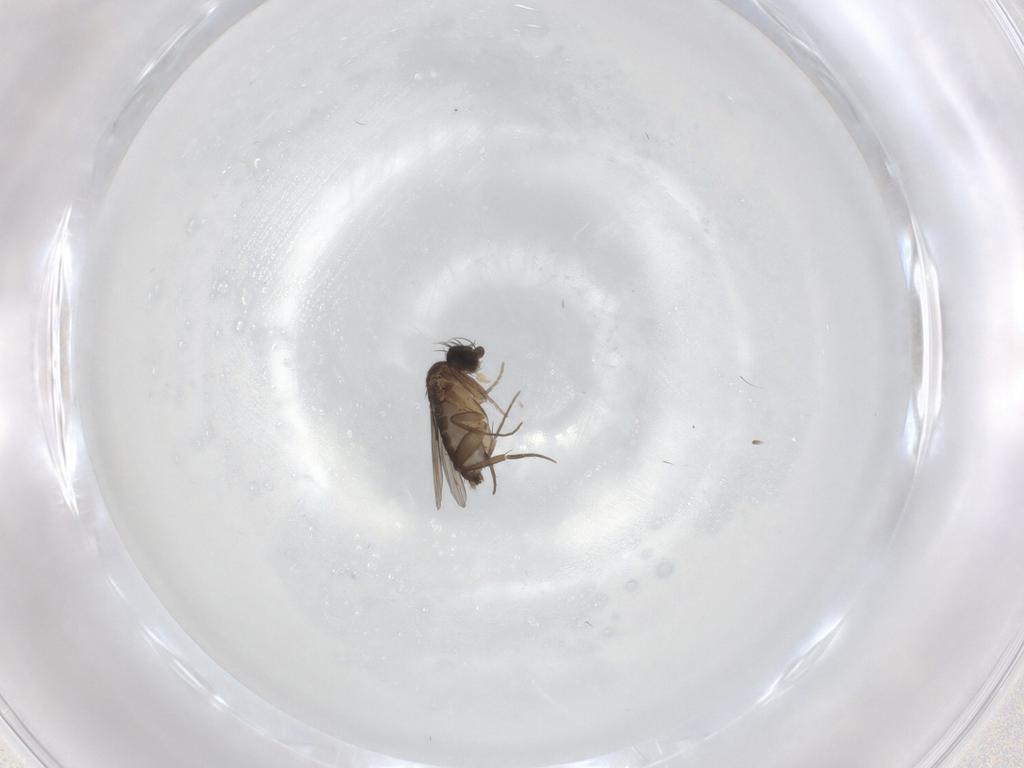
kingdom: Animalia
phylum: Arthropoda
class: Insecta
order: Diptera
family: Phoridae
